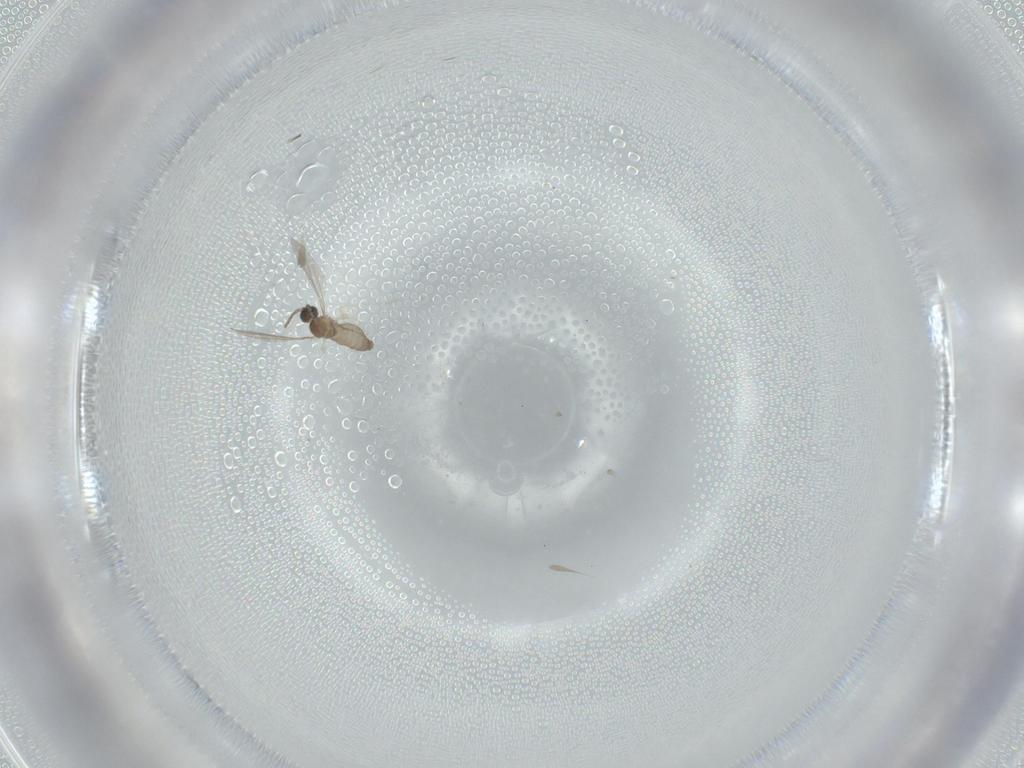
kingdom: Animalia
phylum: Arthropoda
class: Insecta
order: Diptera
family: Cecidomyiidae
